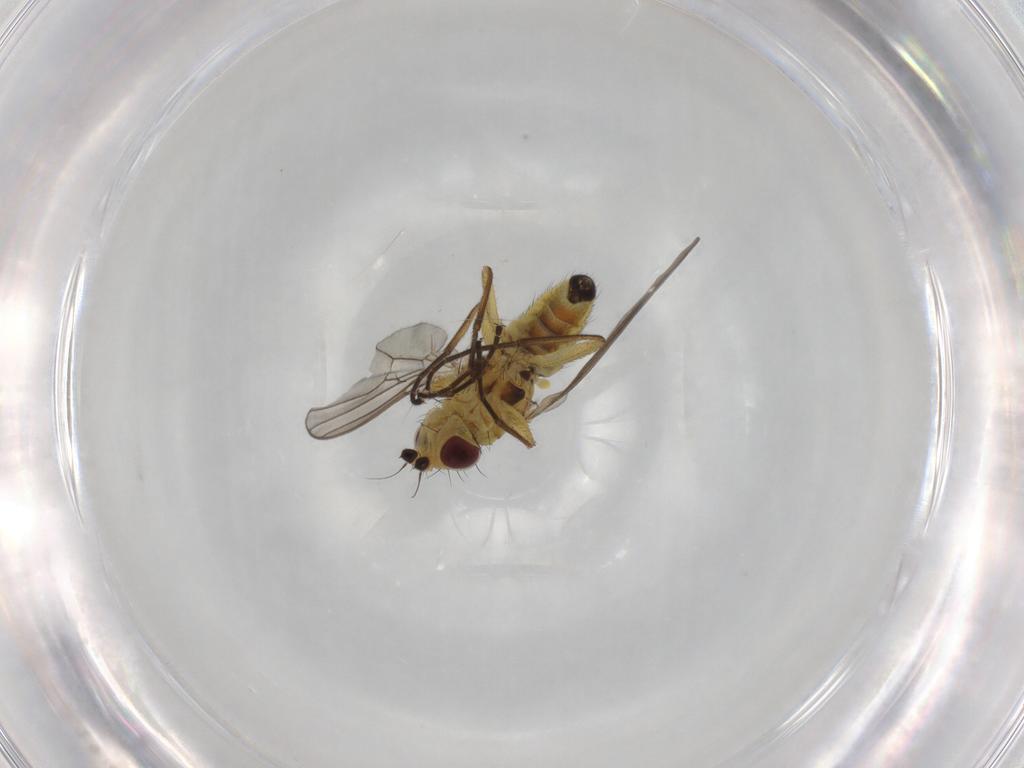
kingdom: Animalia
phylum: Arthropoda
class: Insecta
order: Diptera
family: Agromyzidae
